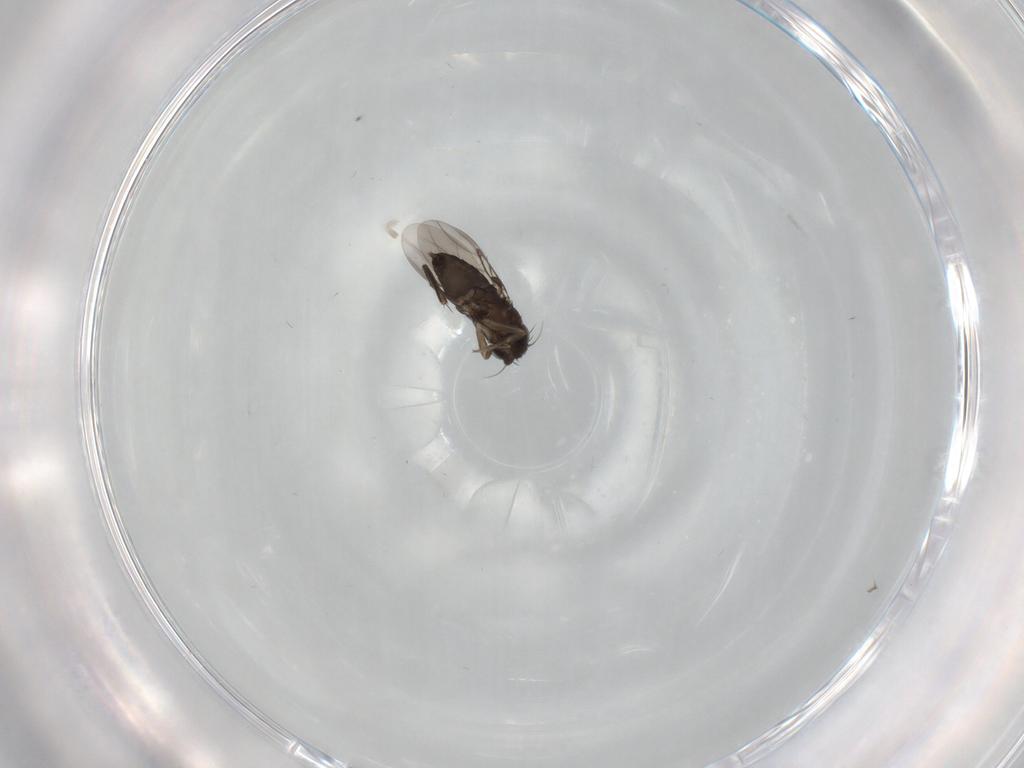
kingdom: Animalia
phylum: Arthropoda
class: Insecta
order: Diptera
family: Phoridae
